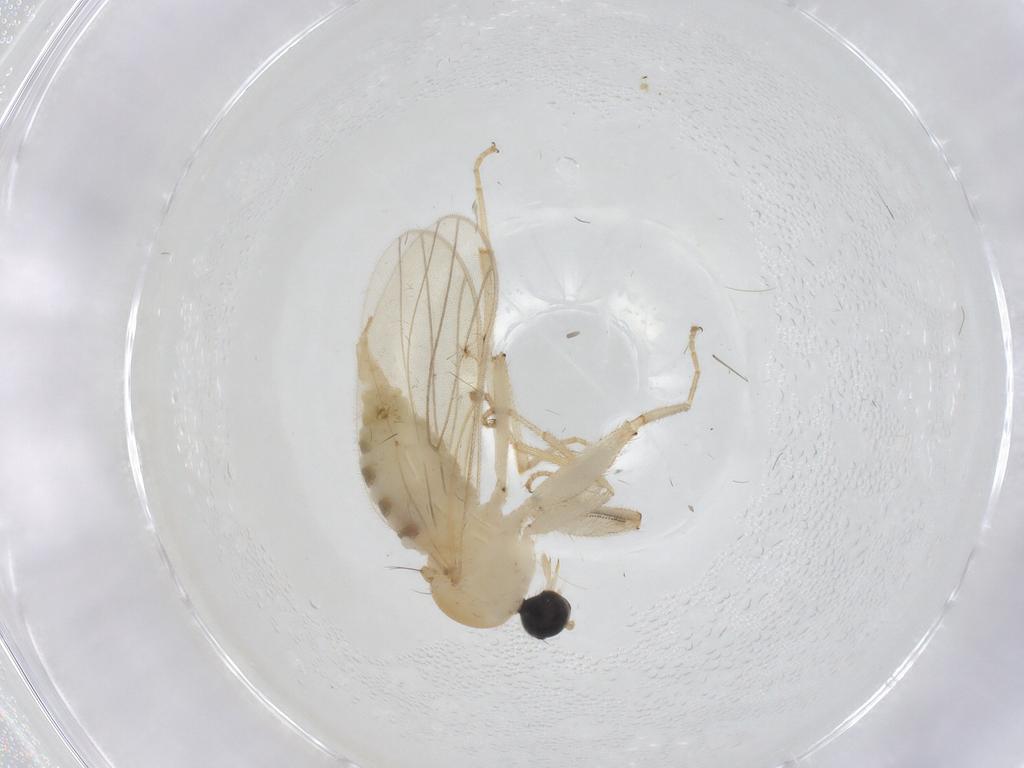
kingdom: Animalia
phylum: Arthropoda
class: Insecta
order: Diptera
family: Hybotidae
